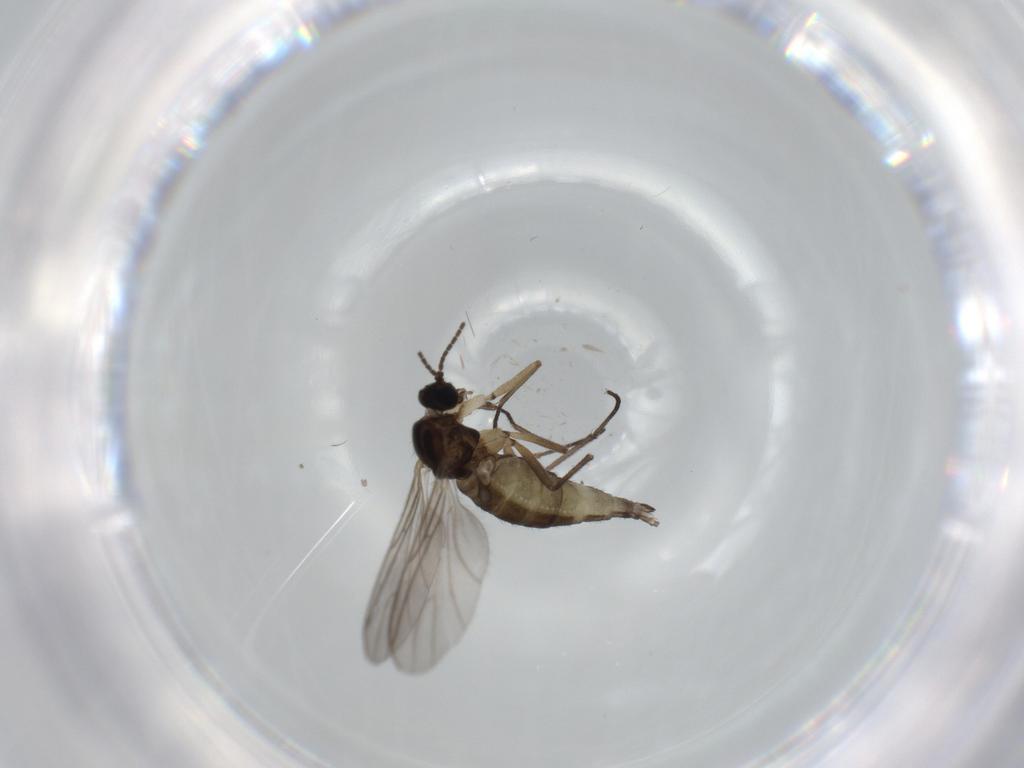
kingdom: Animalia
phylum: Arthropoda
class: Insecta
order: Diptera
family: Sciaridae
